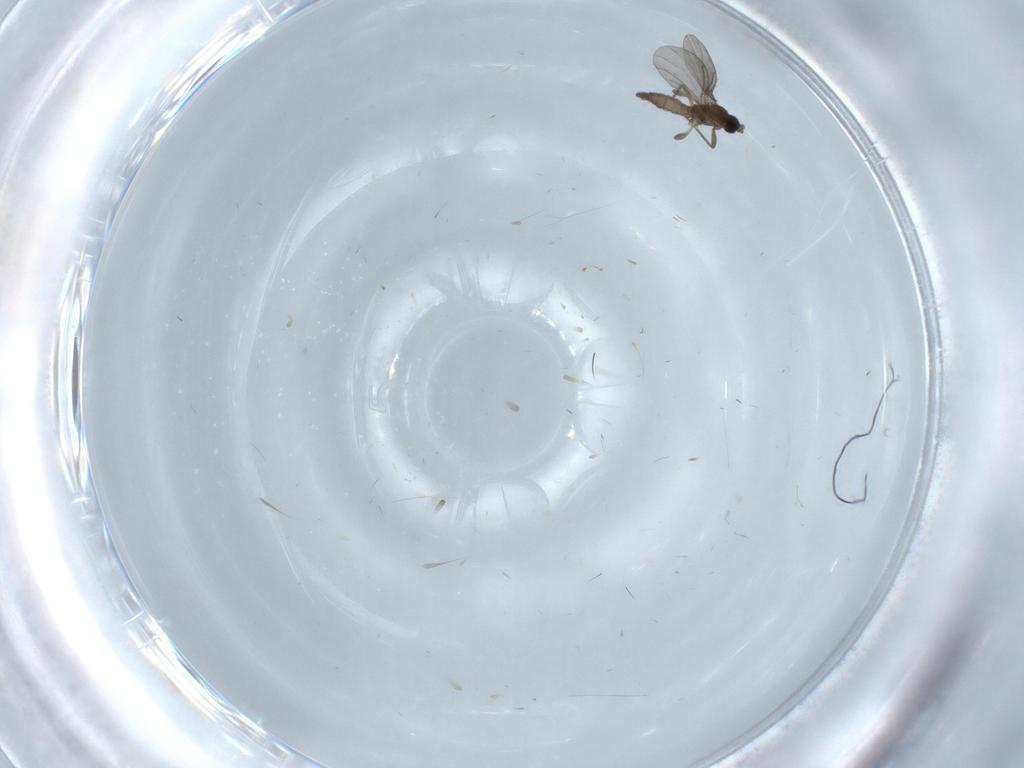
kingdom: Animalia
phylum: Arthropoda
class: Insecta
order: Diptera
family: Sciaridae
